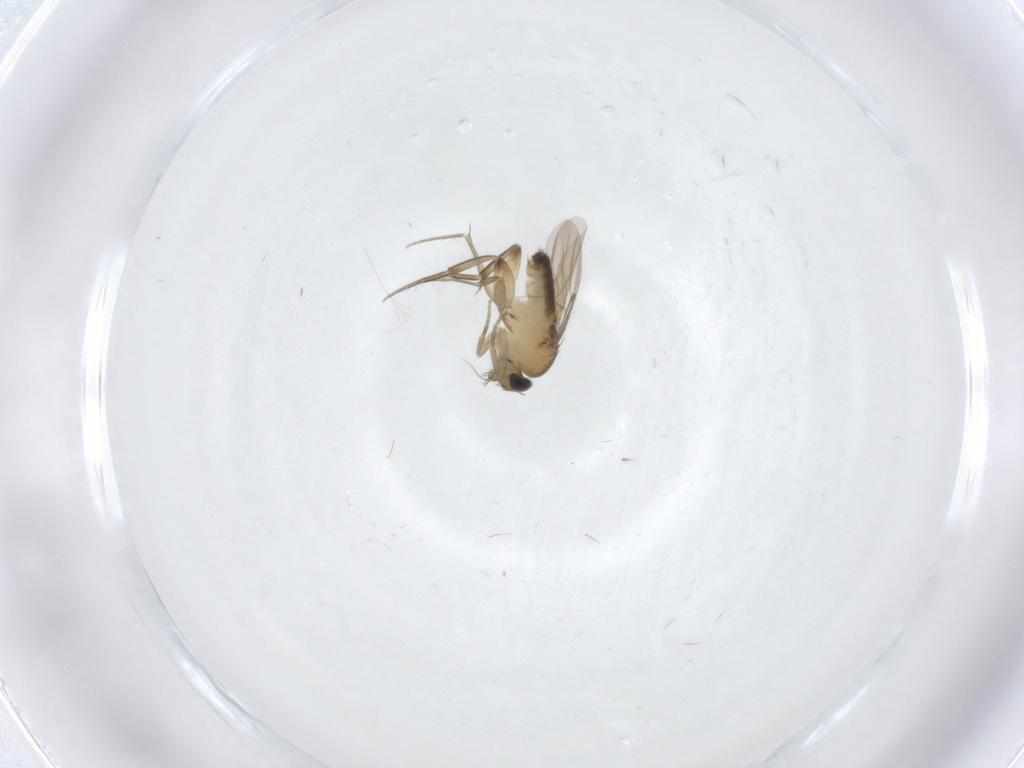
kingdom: Animalia
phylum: Arthropoda
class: Insecta
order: Diptera
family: Phoridae
